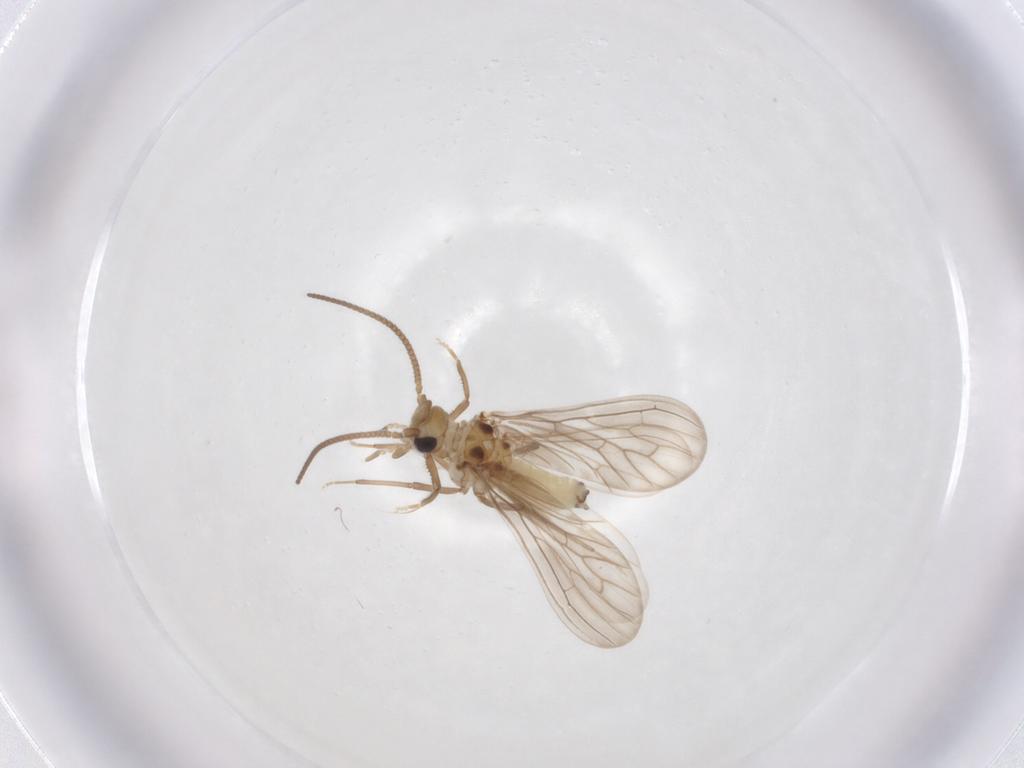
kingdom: Animalia
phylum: Arthropoda
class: Insecta
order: Neuroptera
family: Coniopterygidae
